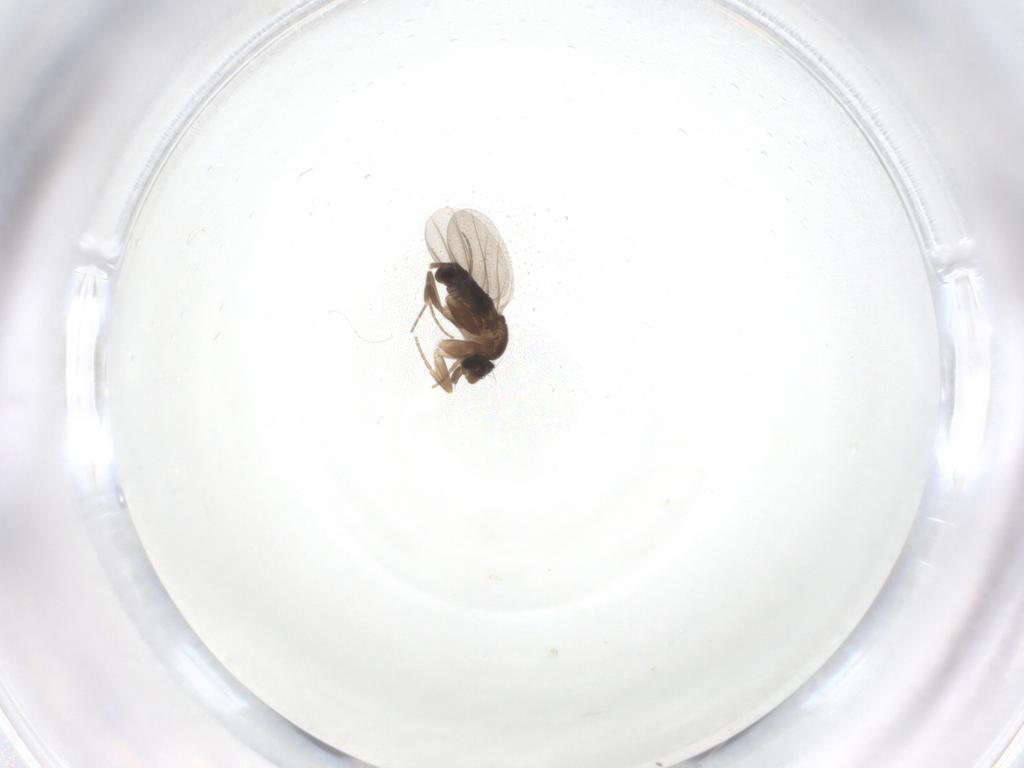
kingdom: Animalia
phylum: Arthropoda
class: Insecta
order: Diptera
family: Phoridae
